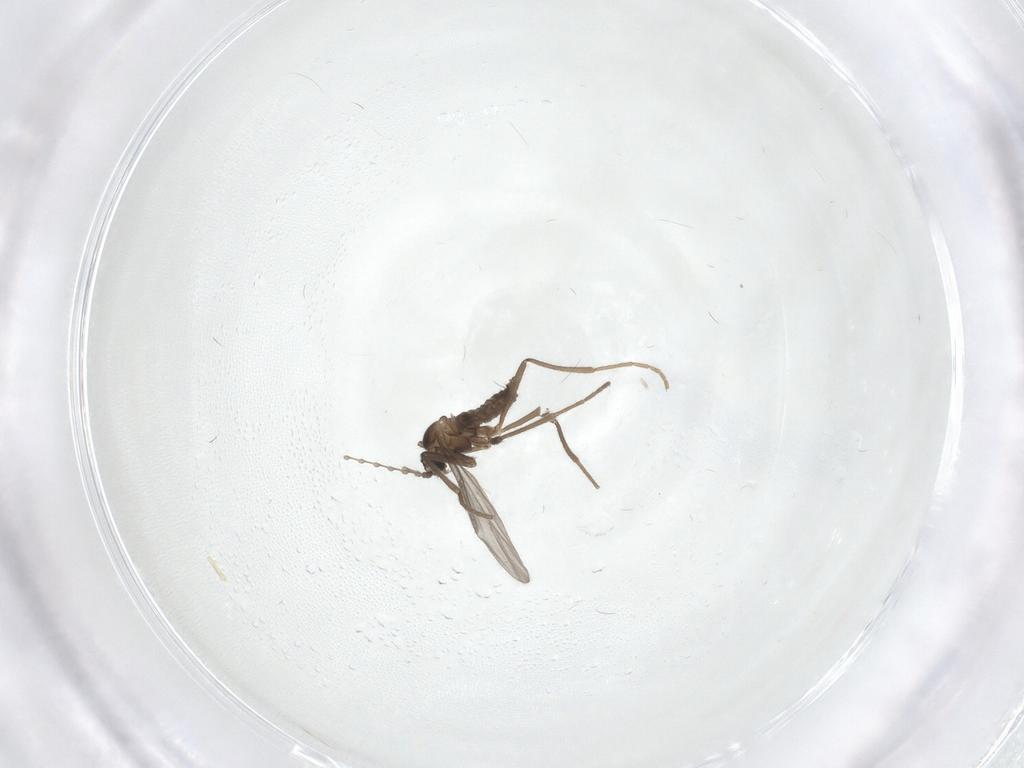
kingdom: Animalia
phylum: Arthropoda
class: Insecta
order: Diptera
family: Cecidomyiidae
